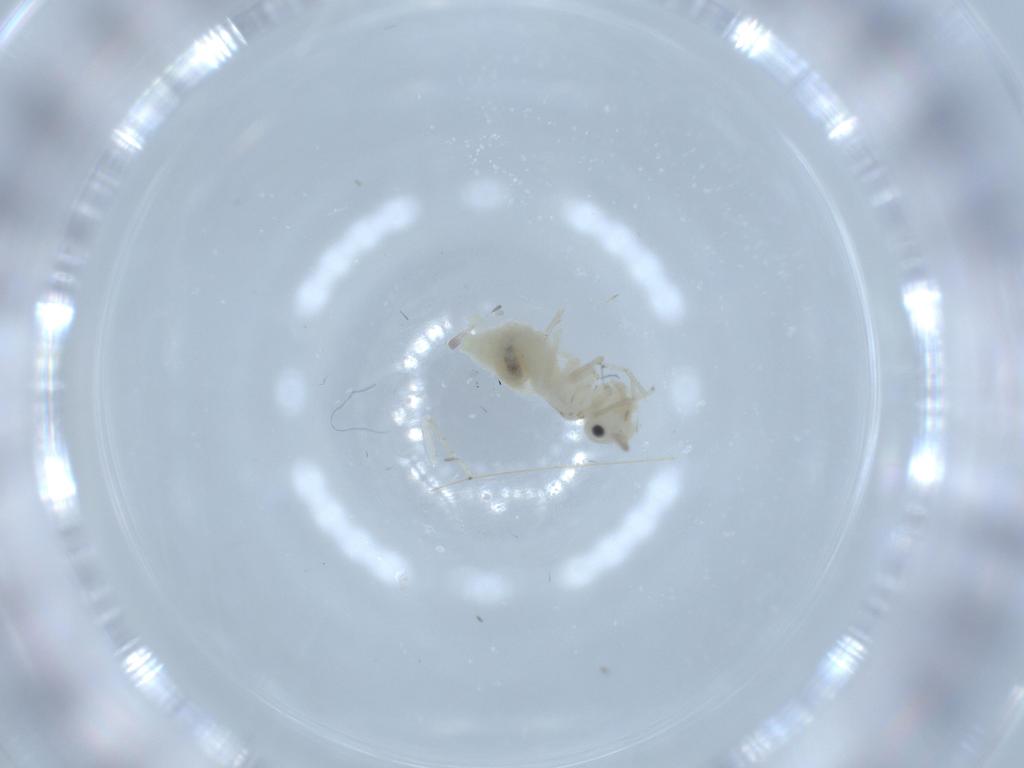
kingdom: Animalia
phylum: Arthropoda
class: Insecta
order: Psocodea
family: Caeciliusidae
